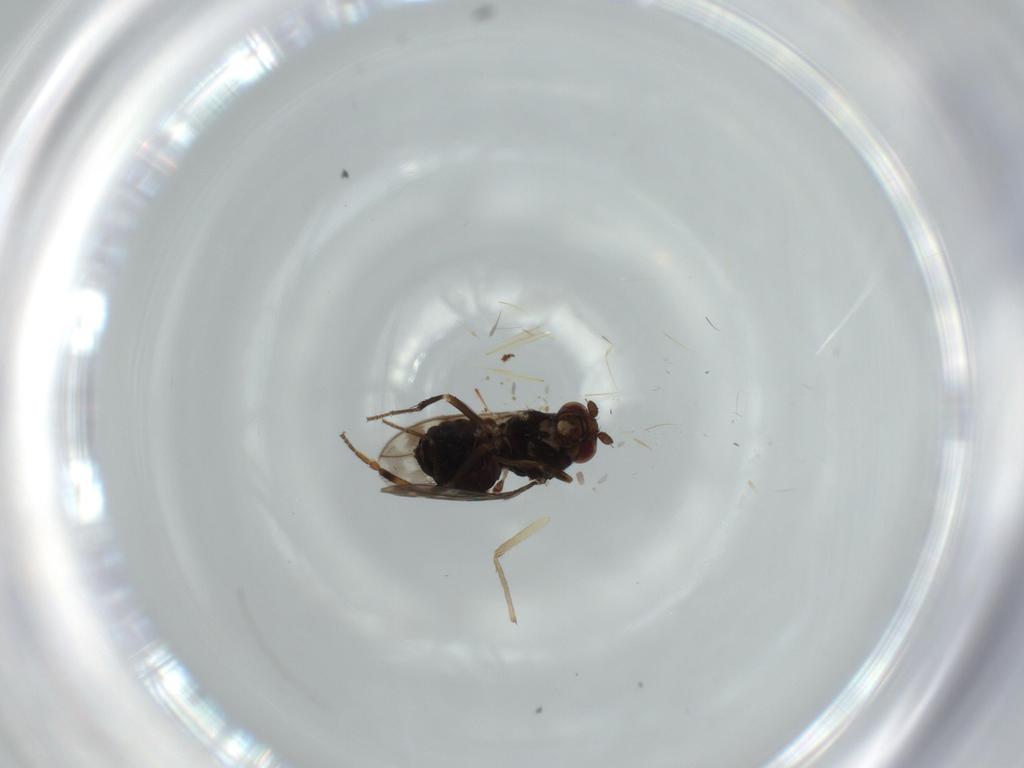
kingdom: Animalia
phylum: Arthropoda
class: Insecta
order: Diptera
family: Sphaeroceridae
